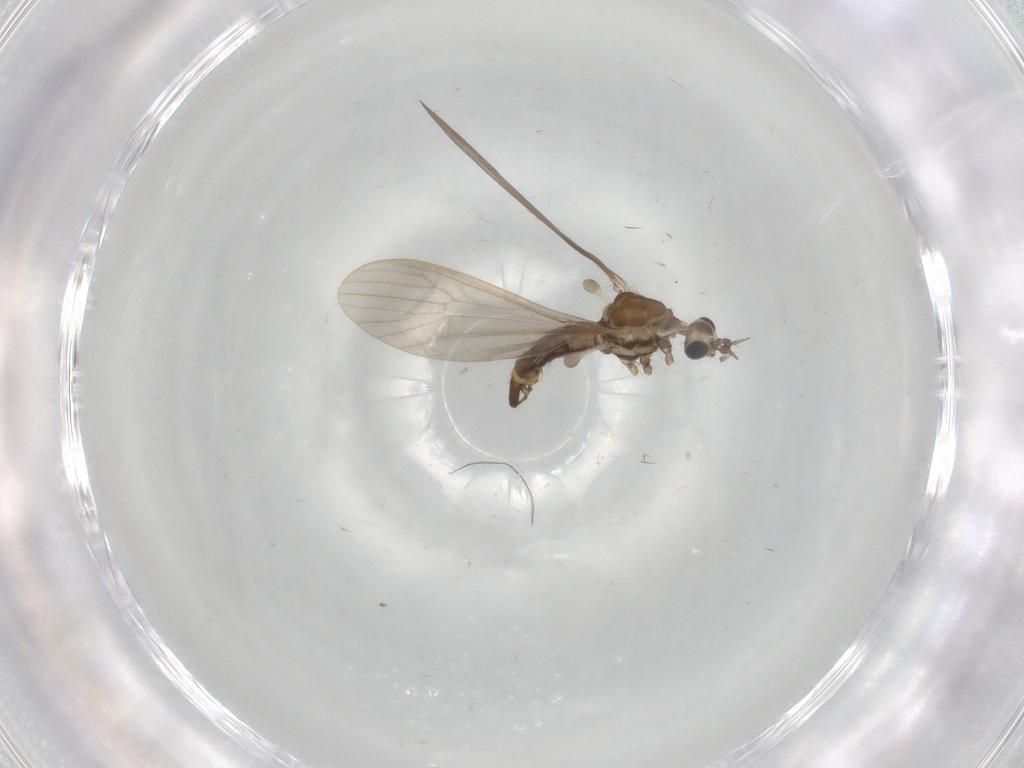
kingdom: Animalia
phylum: Arthropoda
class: Insecta
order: Diptera
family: Limoniidae
